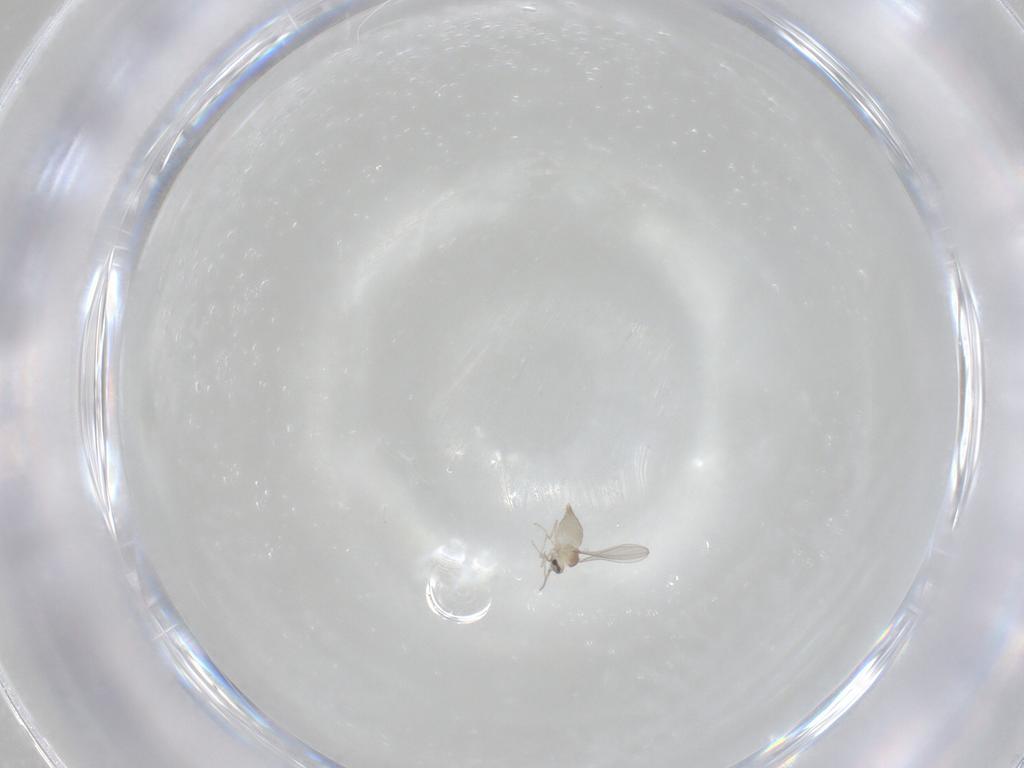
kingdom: Animalia
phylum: Arthropoda
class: Insecta
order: Diptera
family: Cecidomyiidae
